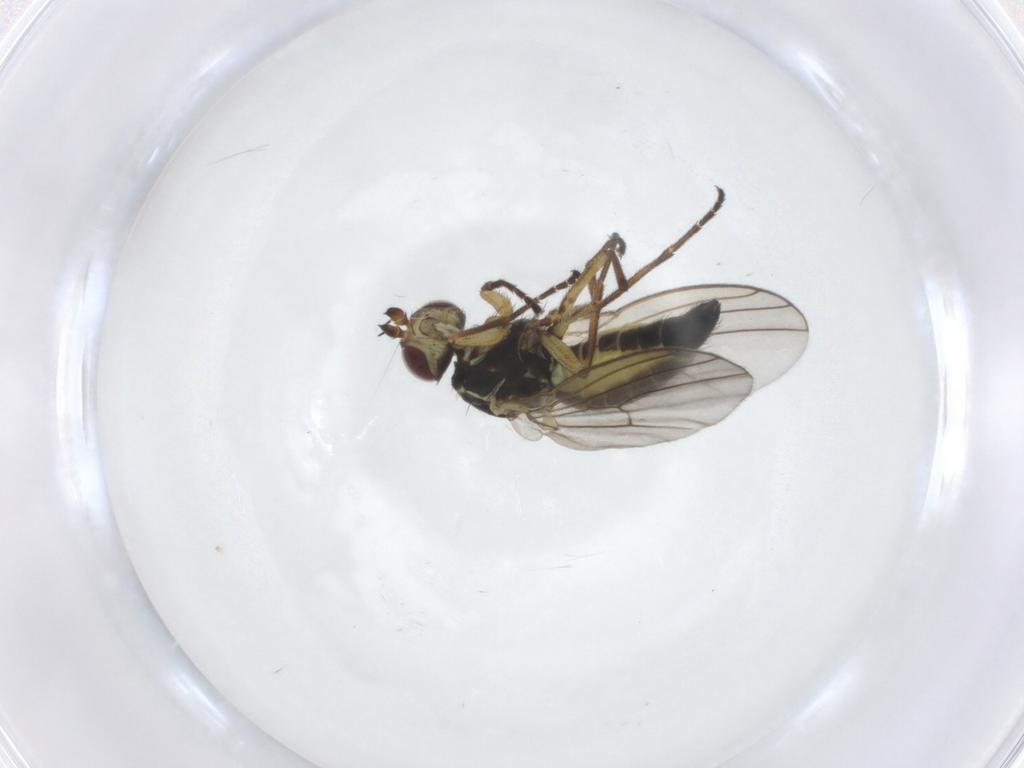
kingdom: Animalia
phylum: Arthropoda
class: Insecta
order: Diptera
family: Agromyzidae
